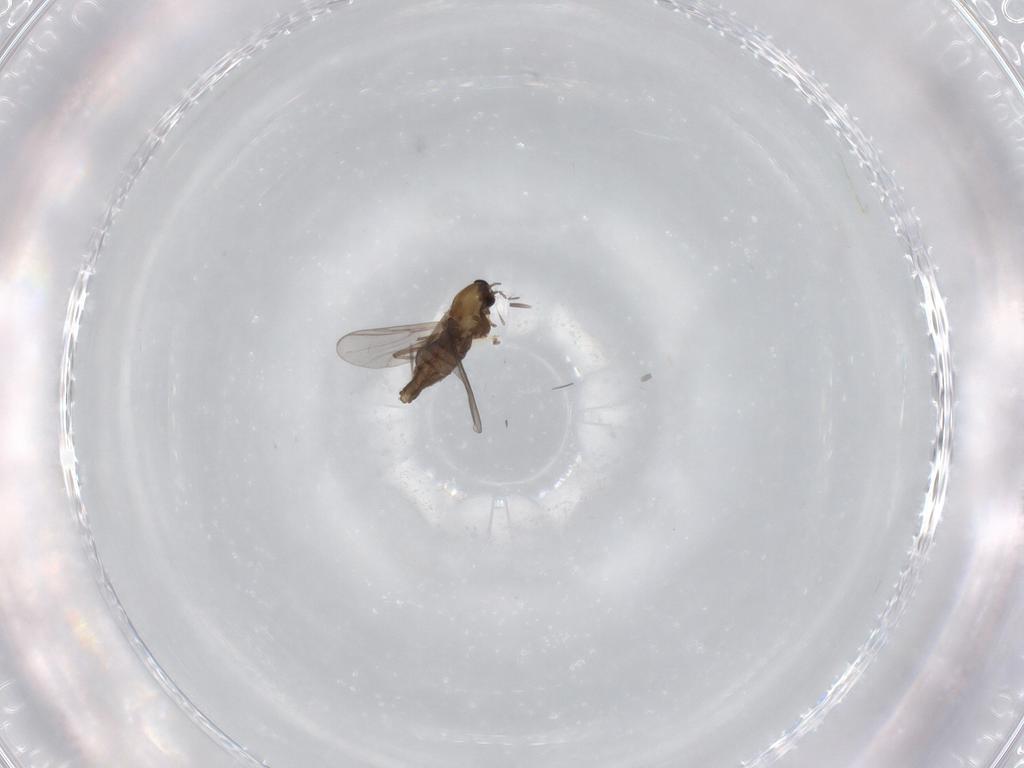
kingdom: Animalia
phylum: Arthropoda
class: Insecta
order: Diptera
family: Chironomidae
